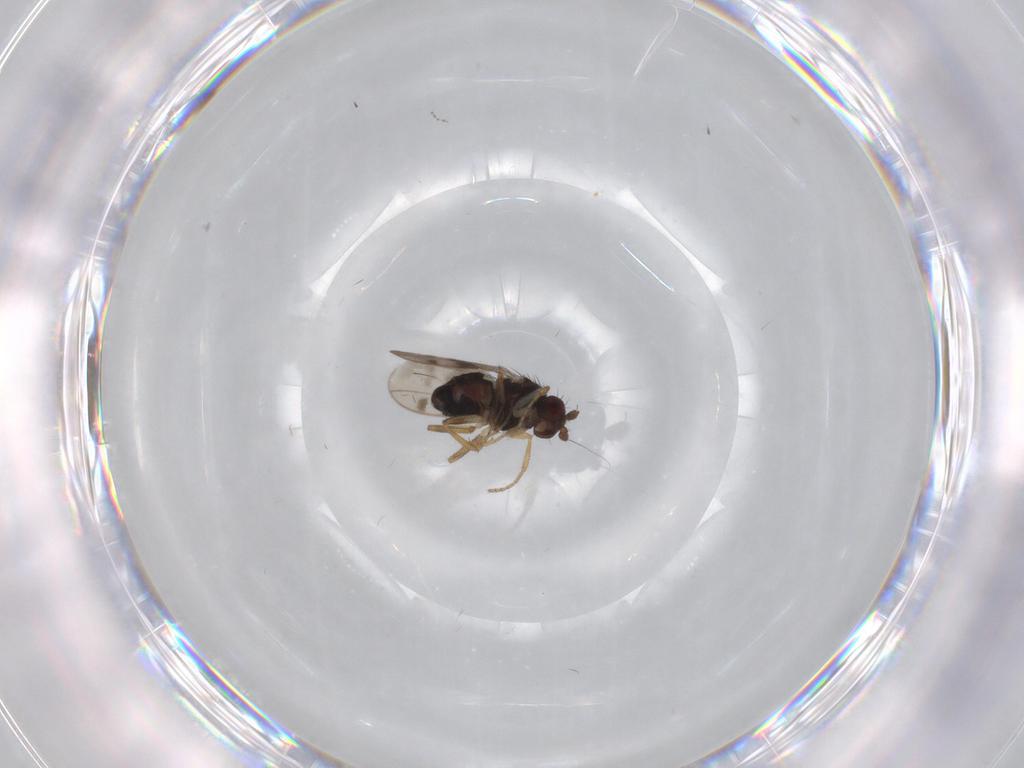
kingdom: Animalia
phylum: Arthropoda
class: Insecta
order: Diptera
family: Sphaeroceridae
